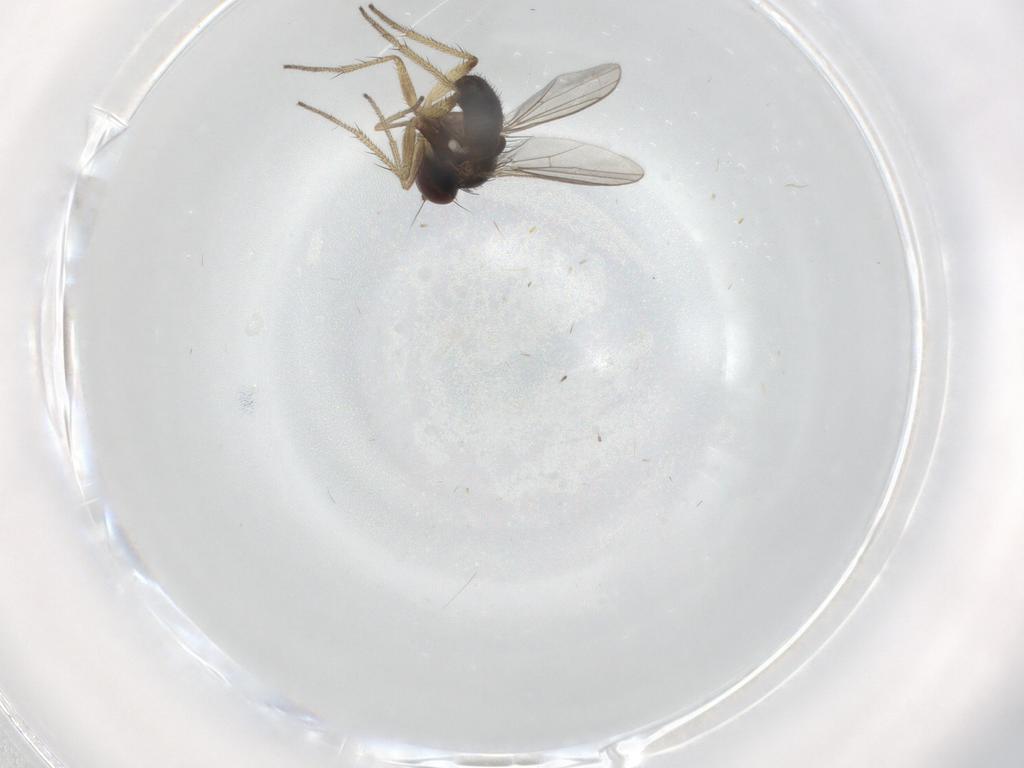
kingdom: Animalia
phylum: Arthropoda
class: Insecta
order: Diptera
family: Dolichopodidae
